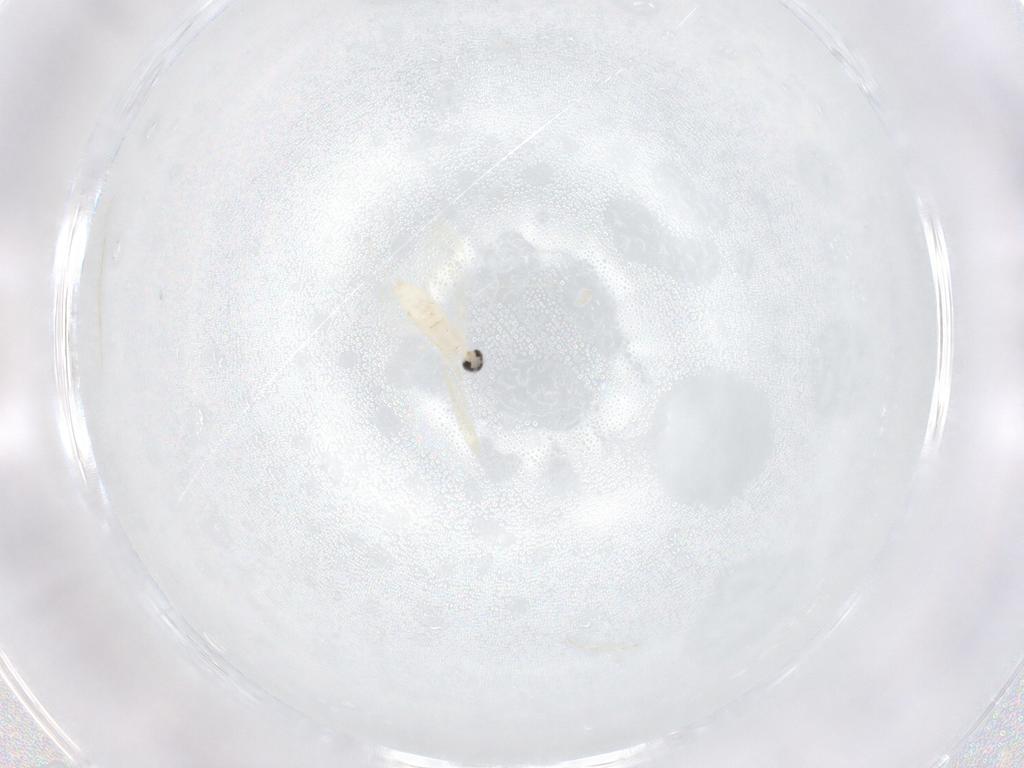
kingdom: Animalia
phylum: Arthropoda
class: Insecta
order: Diptera
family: Cecidomyiidae
